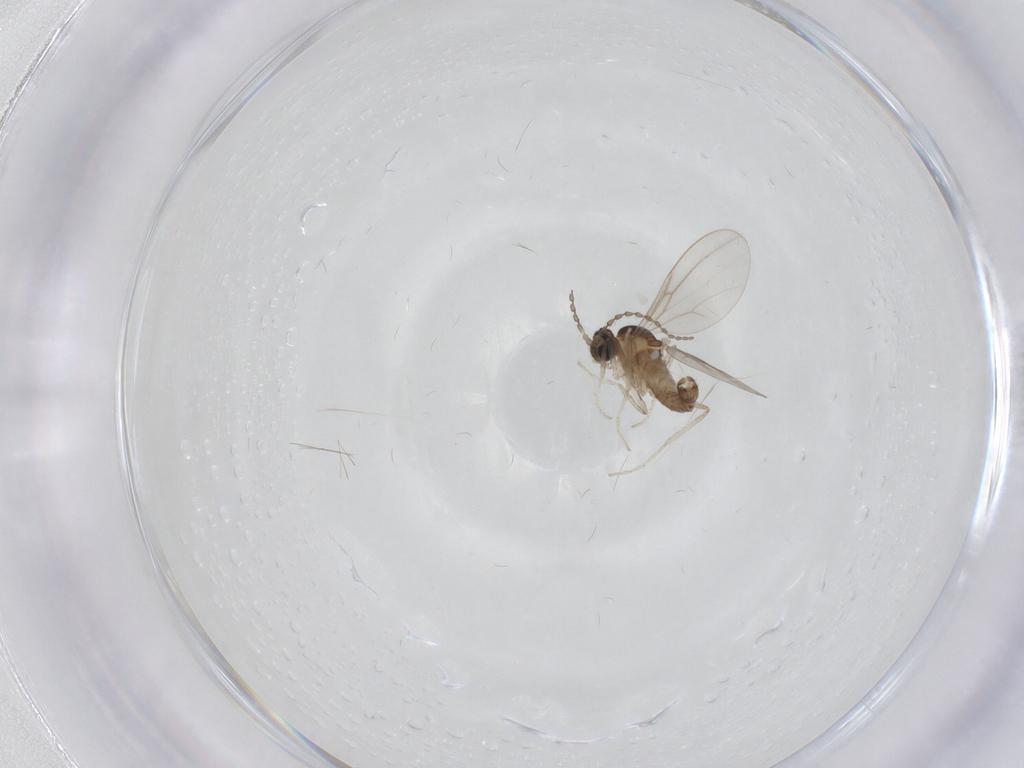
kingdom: Animalia
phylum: Arthropoda
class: Insecta
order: Diptera
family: Cecidomyiidae
